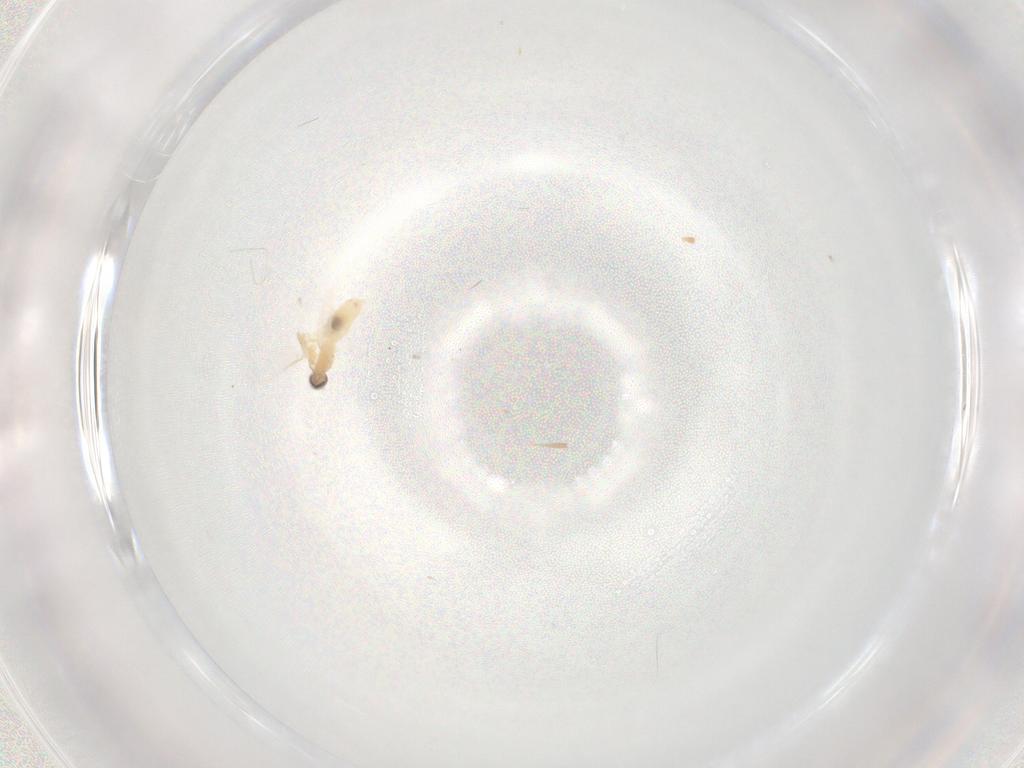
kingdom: Animalia
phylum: Arthropoda
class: Insecta
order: Diptera
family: Sciaridae
